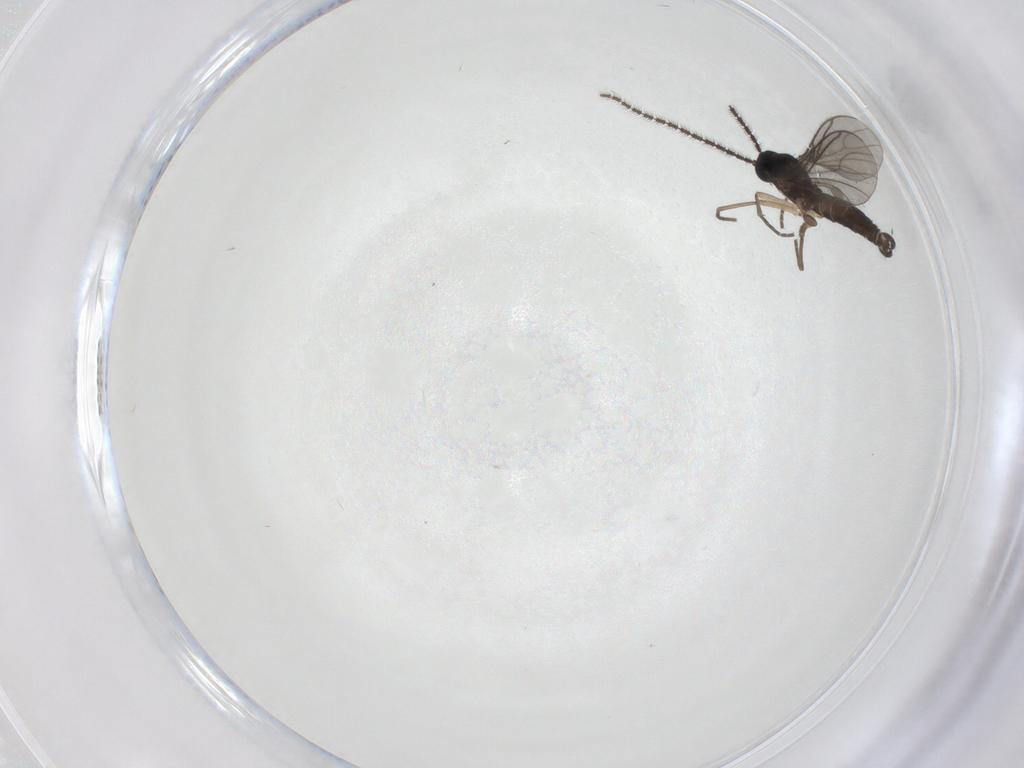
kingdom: Animalia
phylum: Arthropoda
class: Insecta
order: Diptera
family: Sciaridae
